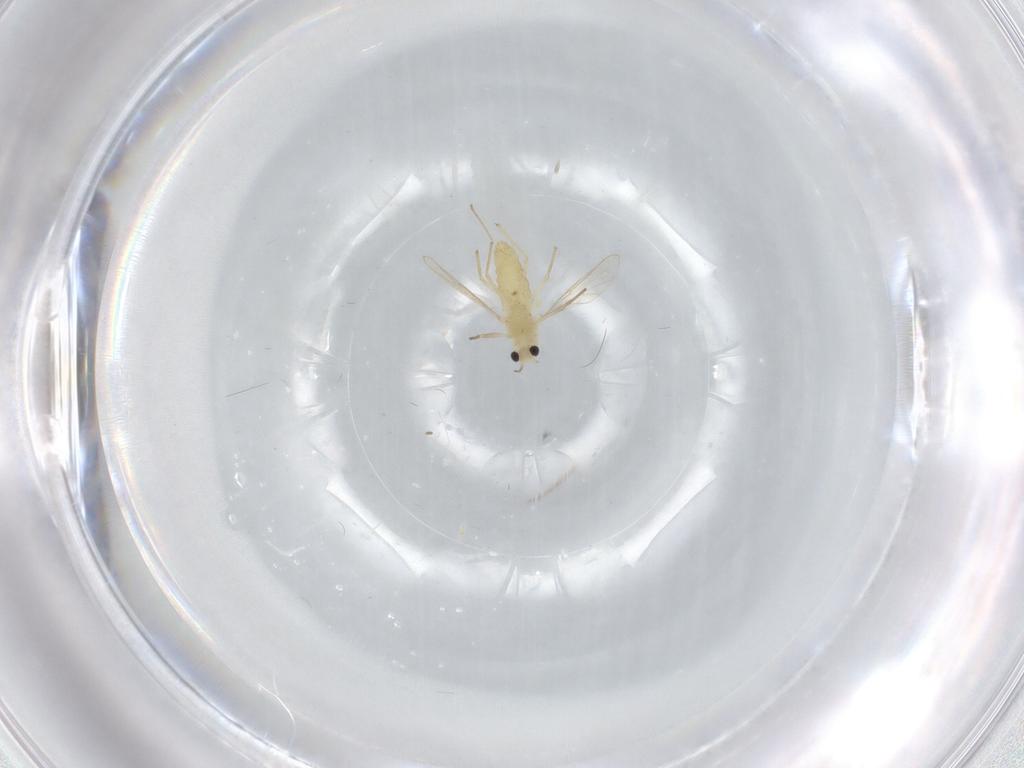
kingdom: Animalia
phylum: Arthropoda
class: Insecta
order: Diptera
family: Chironomidae
